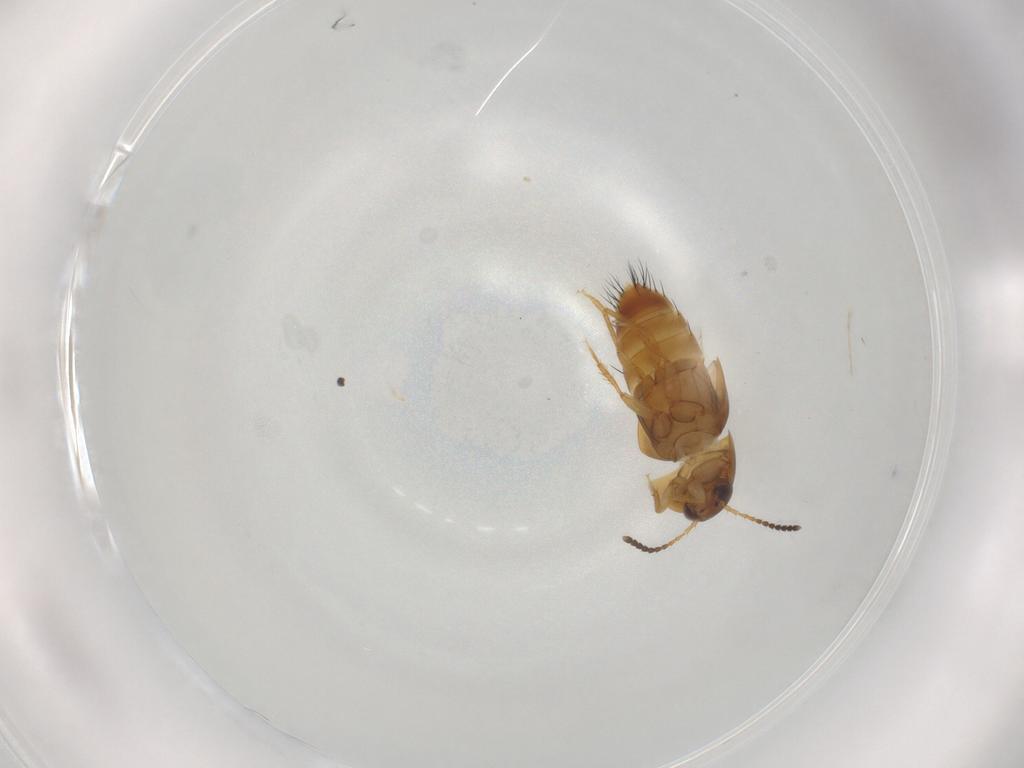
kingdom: Animalia
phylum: Arthropoda
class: Insecta
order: Coleoptera
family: Staphylinidae
